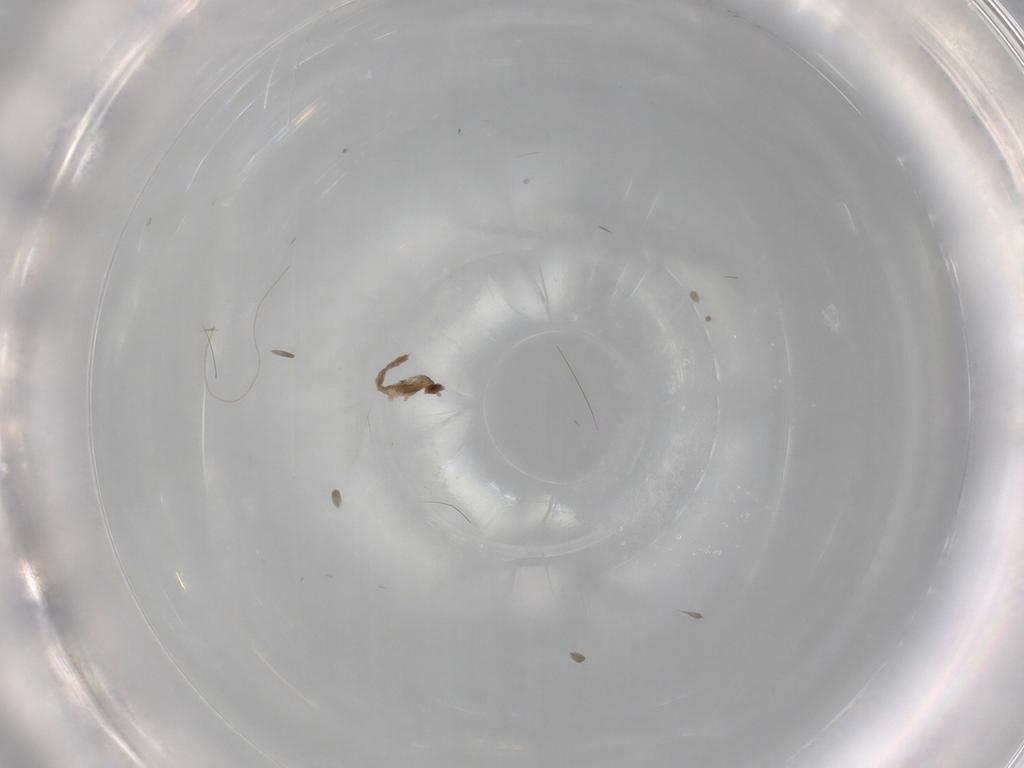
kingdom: Animalia
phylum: Arthropoda
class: Insecta
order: Diptera
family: Cecidomyiidae
